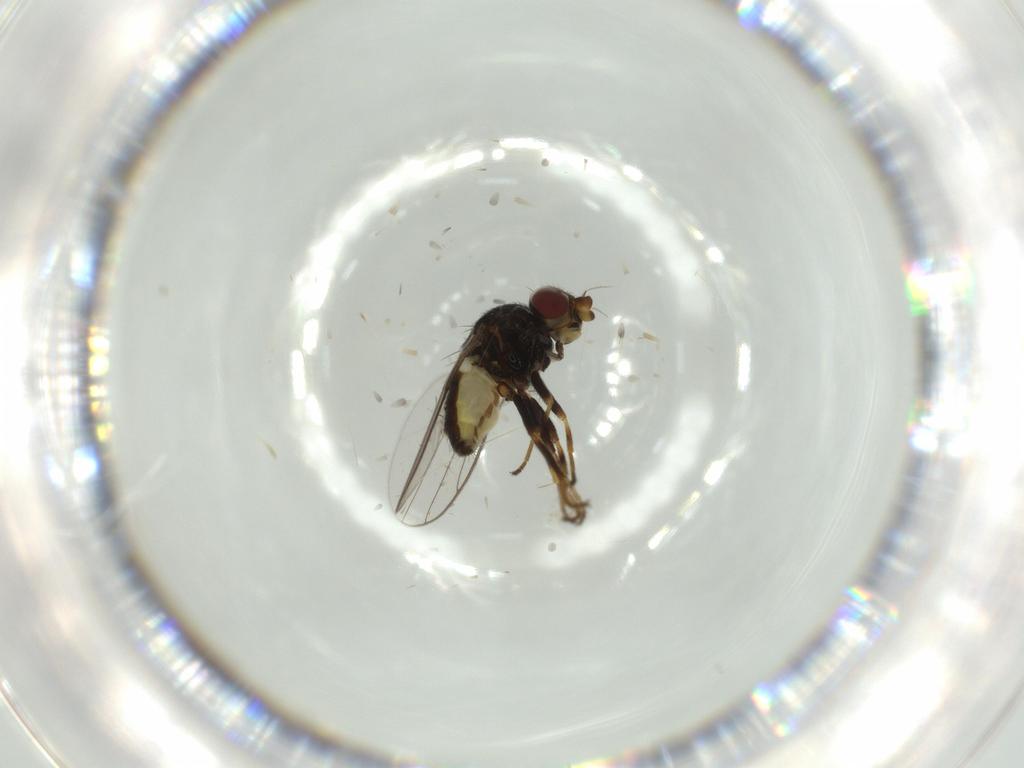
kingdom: Animalia
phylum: Arthropoda
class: Insecta
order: Diptera
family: Chloropidae
